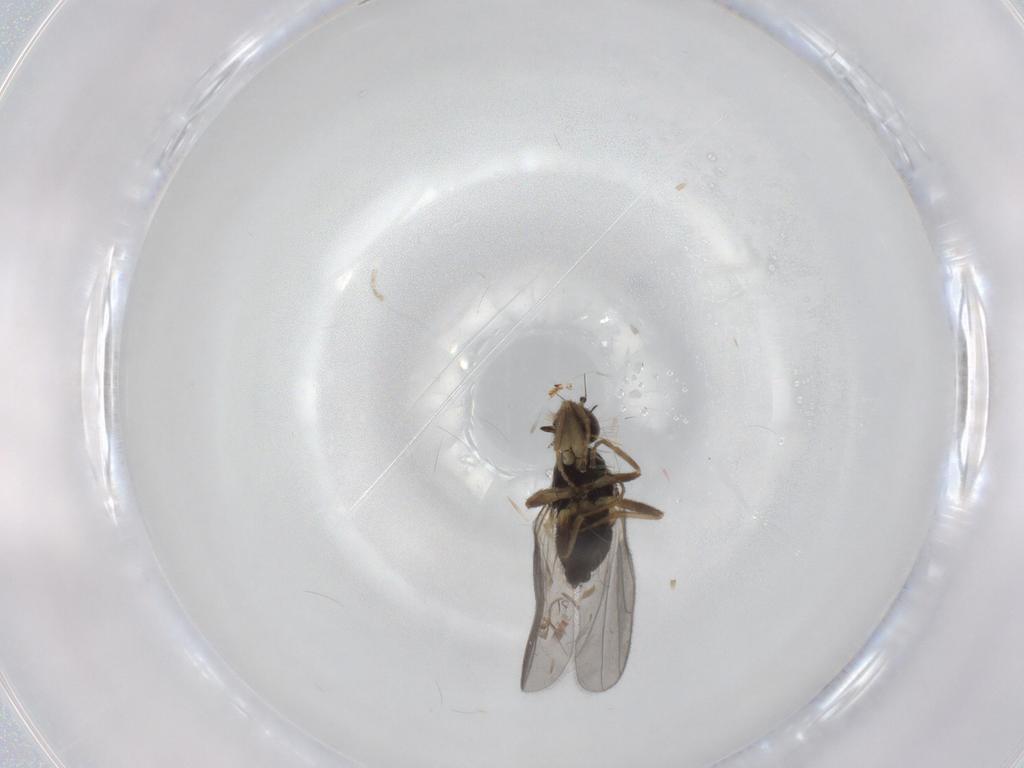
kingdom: Animalia
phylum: Arthropoda
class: Insecta
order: Diptera
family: Hybotidae
